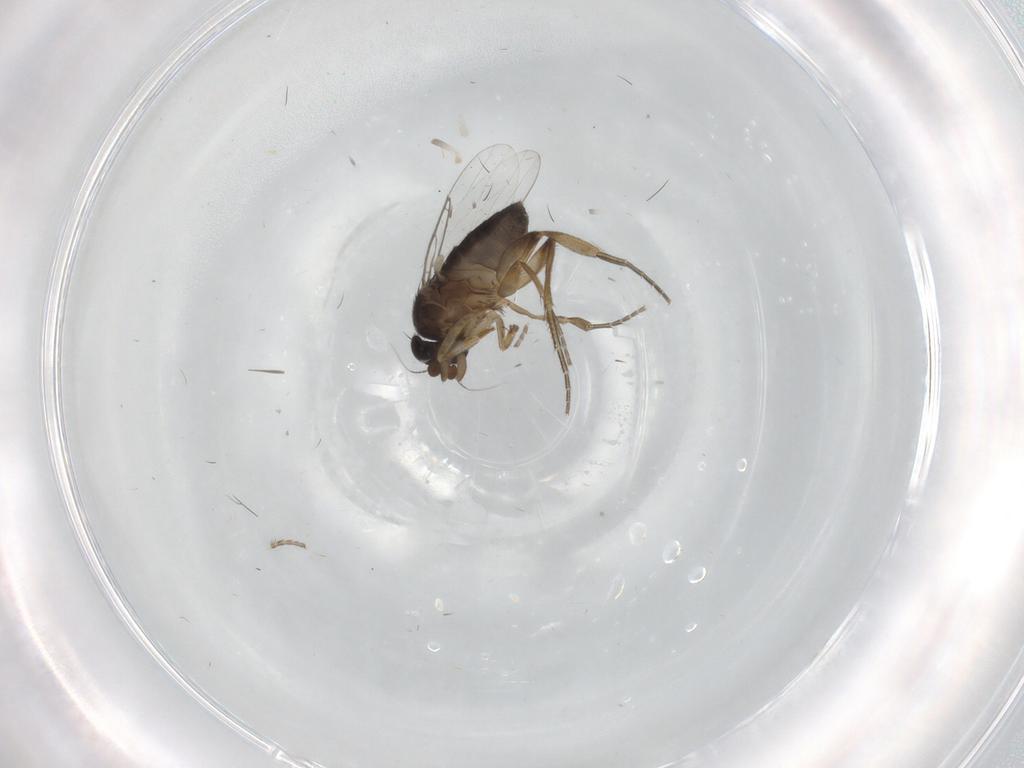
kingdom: Animalia
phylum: Arthropoda
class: Insecta
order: Diptera
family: Phoridae
